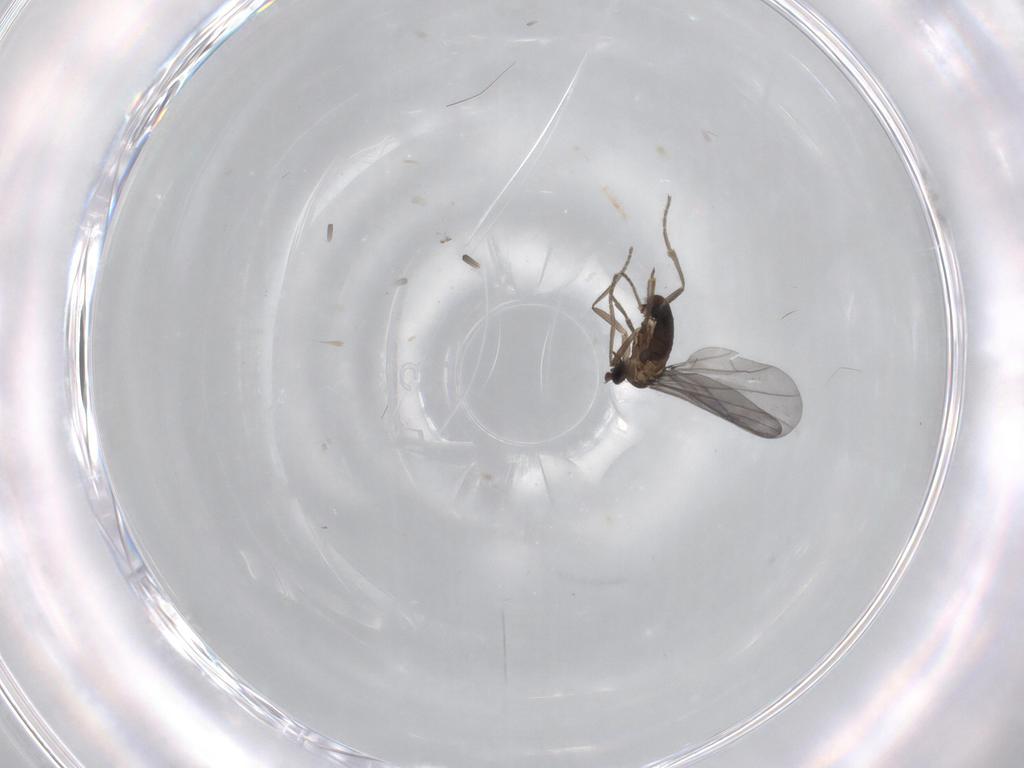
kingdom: Animalia
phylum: Arthropoda
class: Insecta
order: Diptera
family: Phoridae
